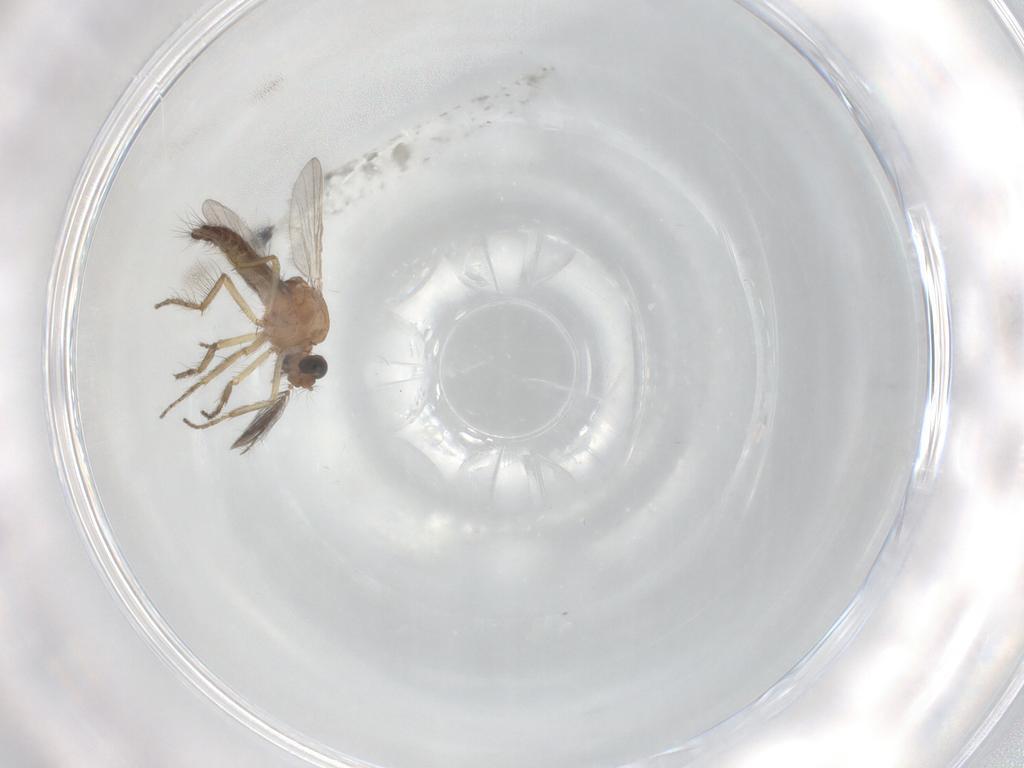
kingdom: Animalia
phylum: Arthropoda
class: Insecta
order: Diptera
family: Ceratopogonidae
